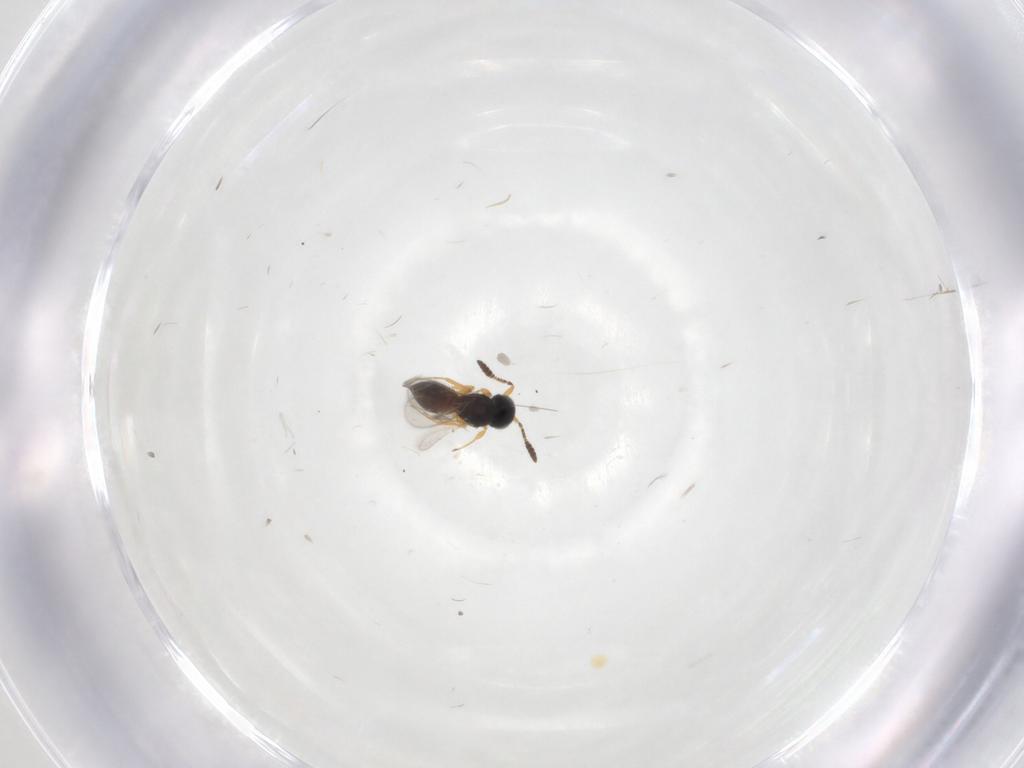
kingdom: Animalia
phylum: Arthropoda
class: Insecta
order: Hymenoptera
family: Scelionidae
